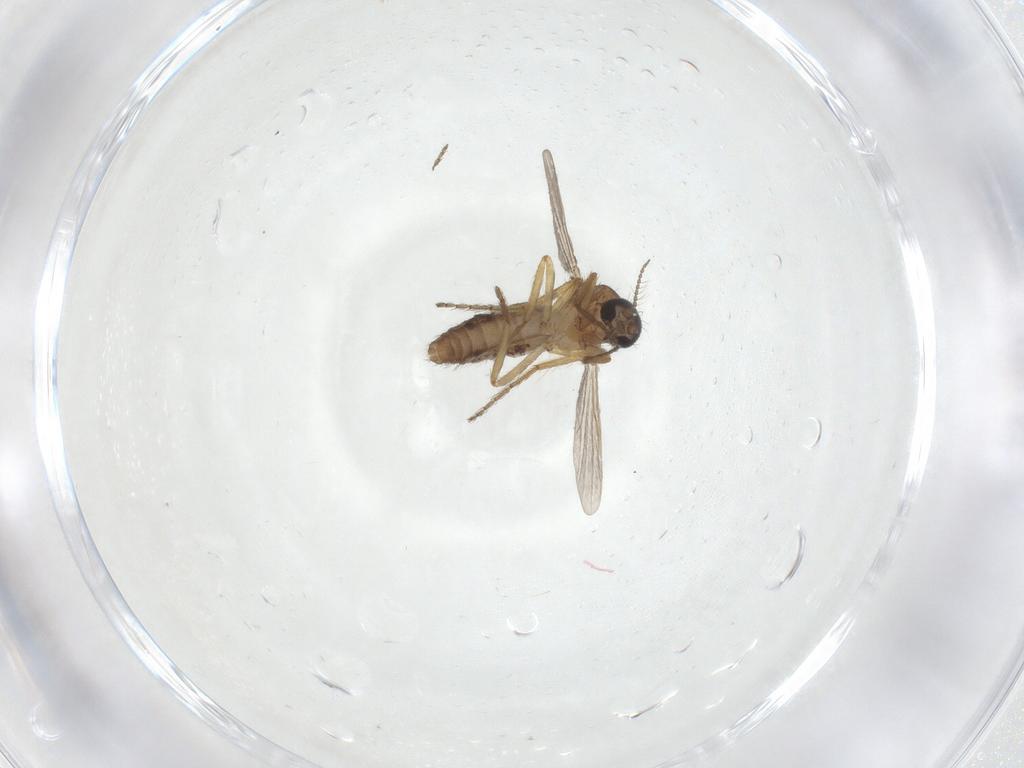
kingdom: Animalia
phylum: Arthropoda
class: Insecta
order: Diptera
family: Ceratopogonidae
